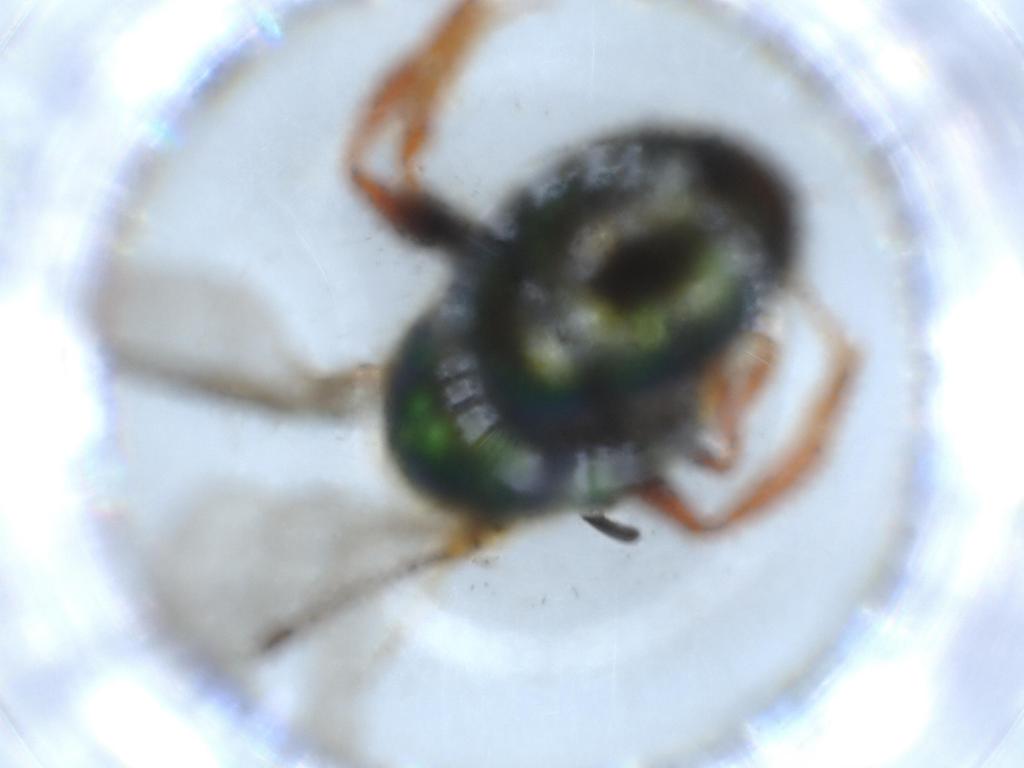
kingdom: Animalia
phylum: Arthropoda
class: Insecta
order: Hymenoptera
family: Halictidae
